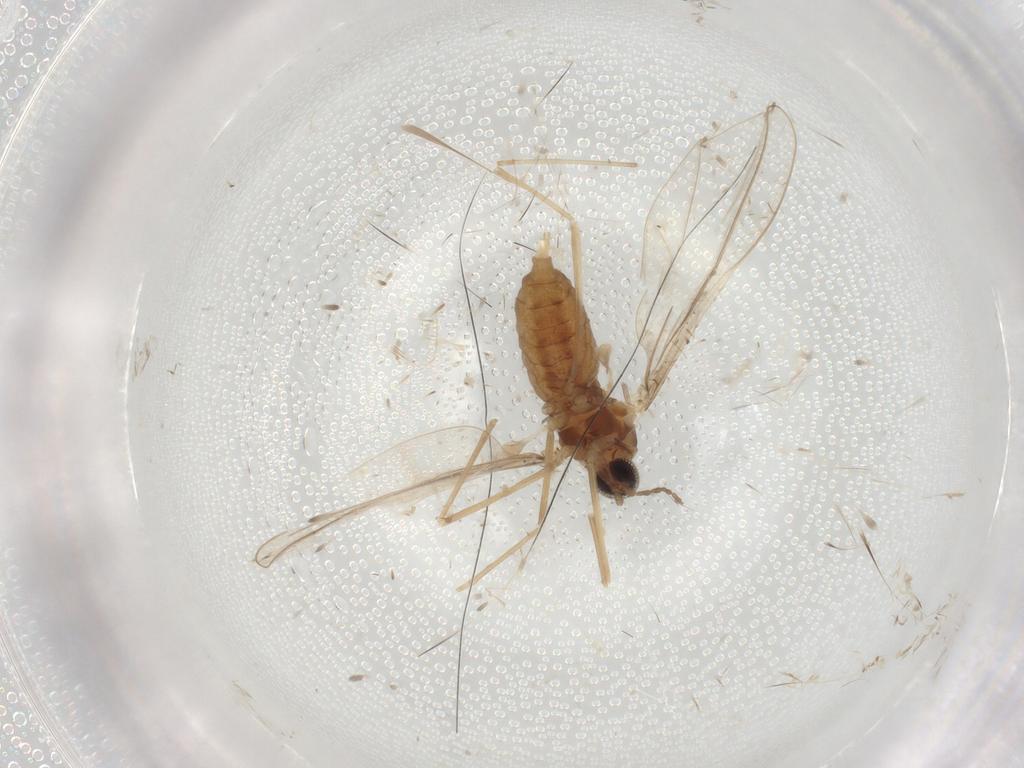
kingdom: Animalia
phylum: Arthropoda
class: Insecta
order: Diptera
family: Cecidomyiidae
